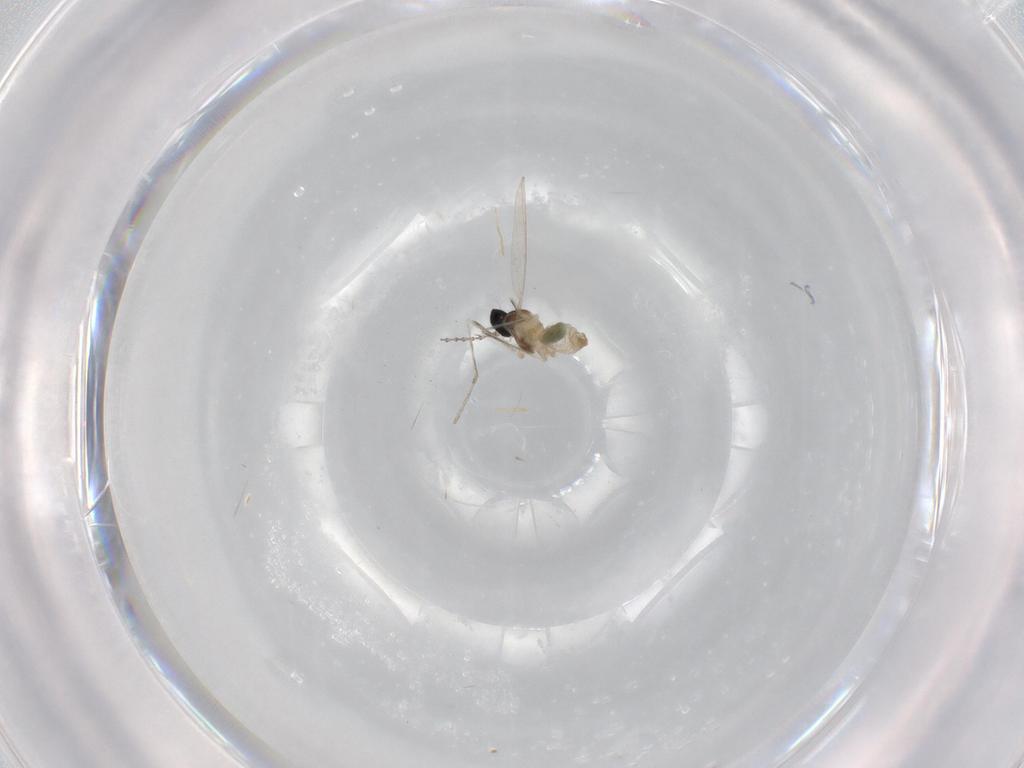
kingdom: Animalia
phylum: Arthropoda
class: Insecta
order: Diptera
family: Cecidomyiidae
